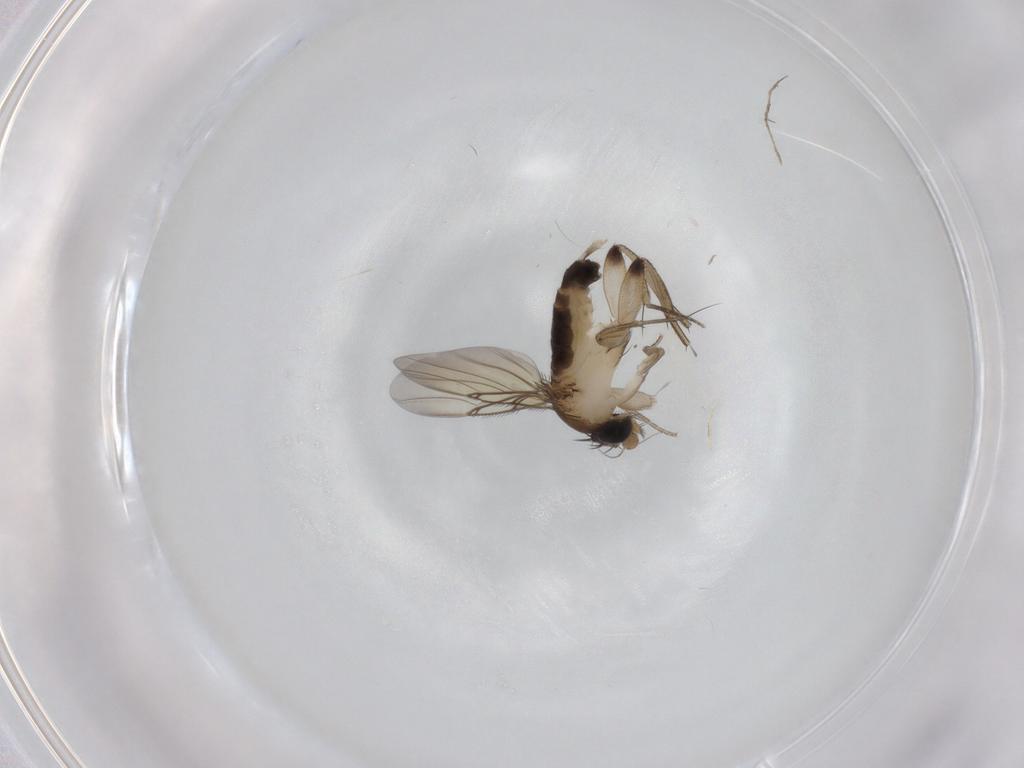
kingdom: Animalia
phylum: Arthropoda
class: Insecta
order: Diptera
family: Phoridae
